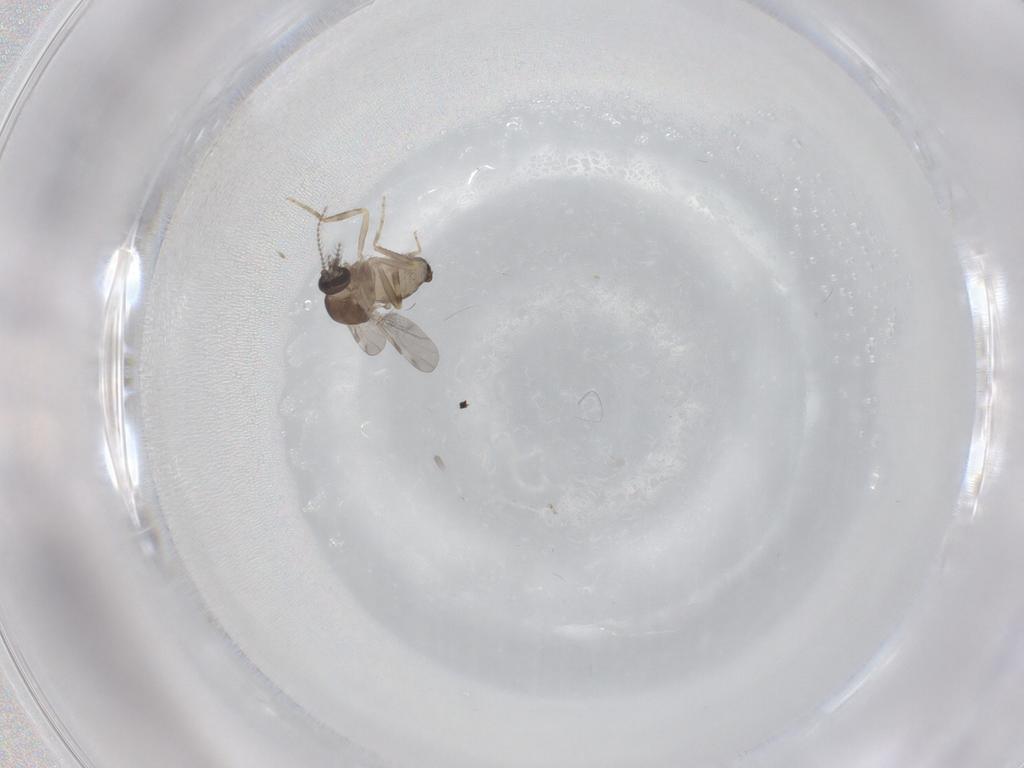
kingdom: Animalia
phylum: Arthropoda
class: Insecta
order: Diptera
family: Ceratopogonidae
